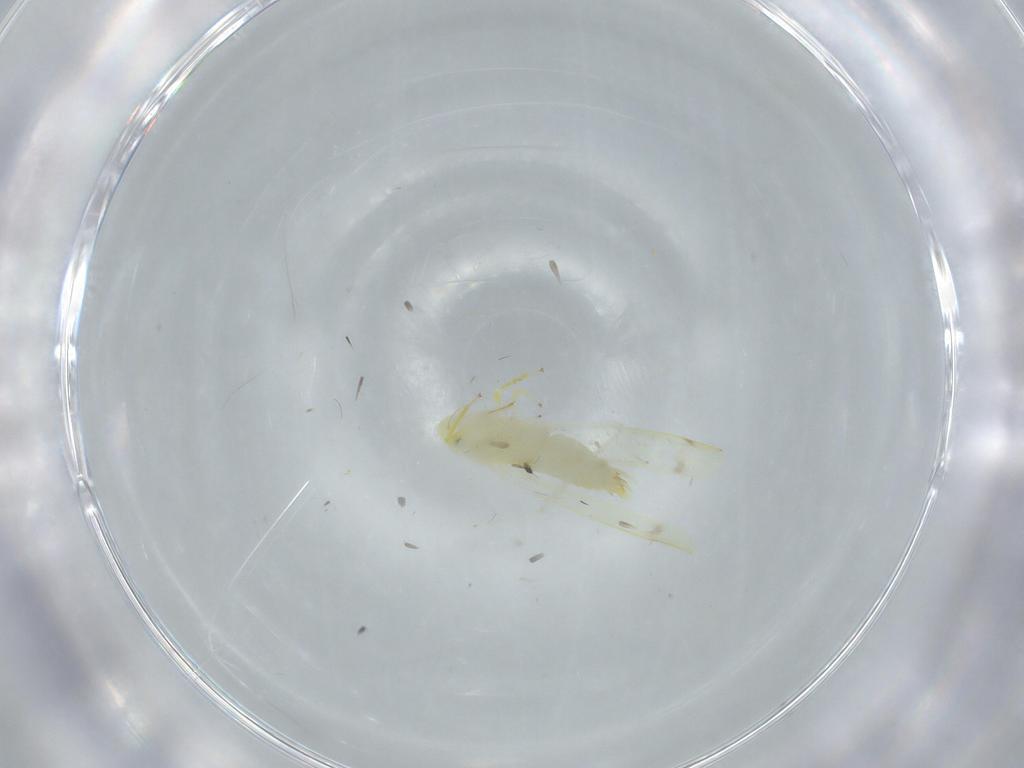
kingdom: Animalia
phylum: Arthropoda
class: Insecta
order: Hemiptera
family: Cicadellidae
